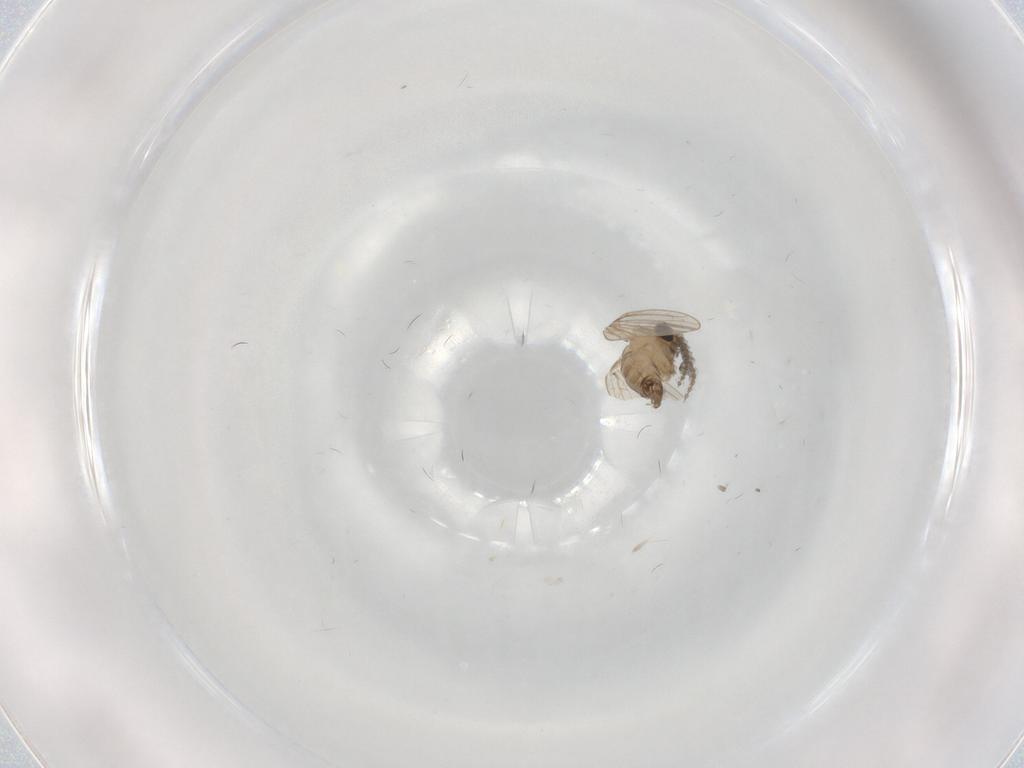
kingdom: Animalia
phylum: Arthropoda
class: Insecta
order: Diptera
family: Psychodidae
